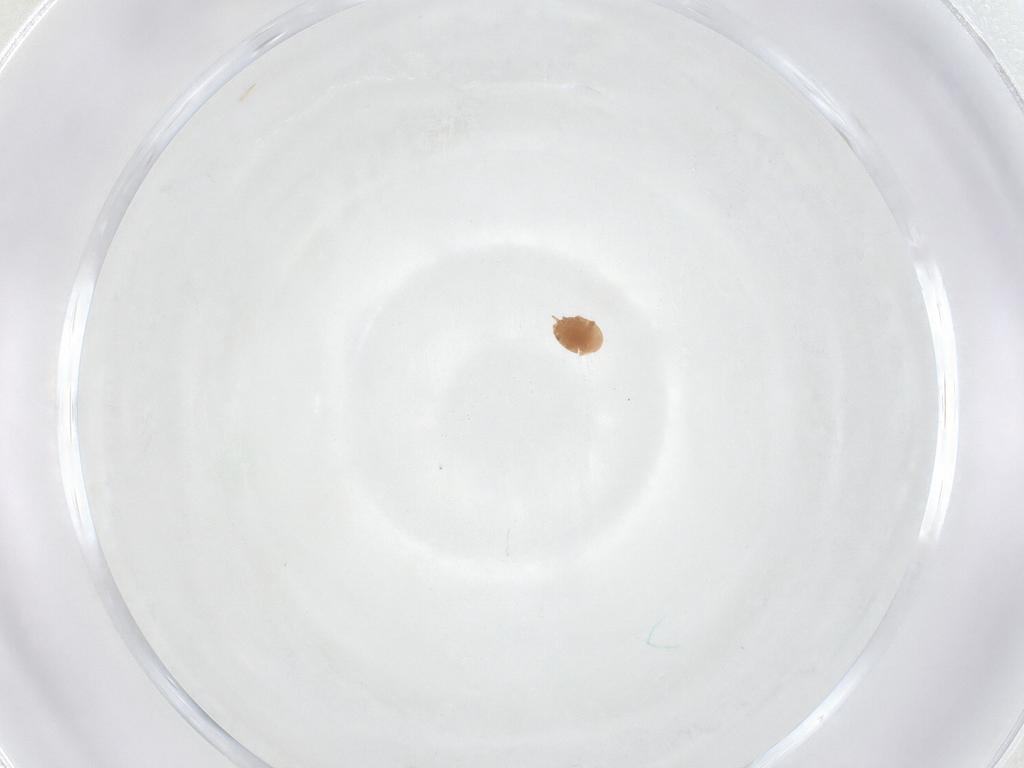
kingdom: Animalia
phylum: Arthropoda
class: Arachnida
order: Mesostigmata
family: Trematuridae
